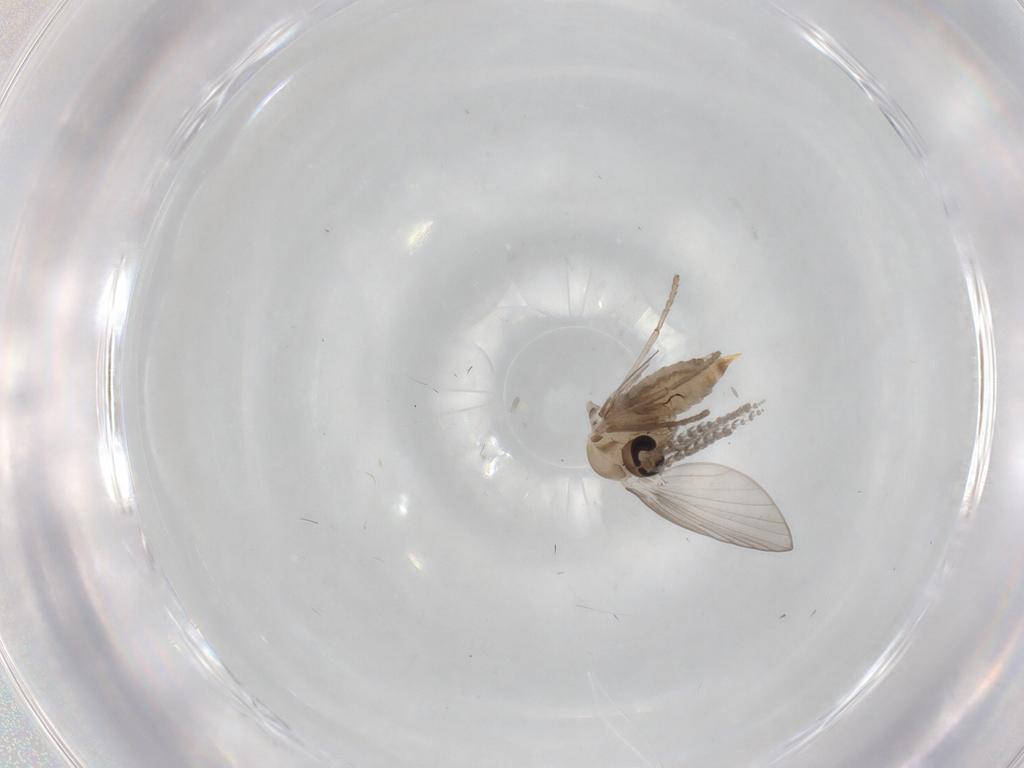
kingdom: Animalia
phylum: Arthropoda
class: Insecta
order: Diptera
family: Psychodidae
